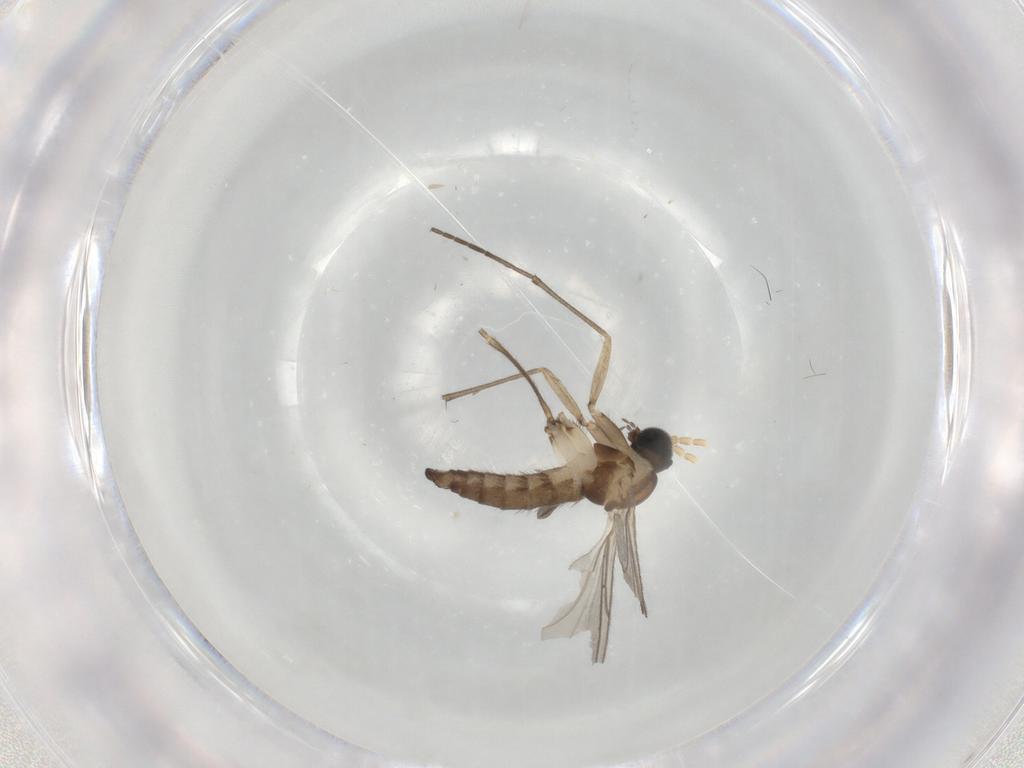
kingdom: Animalia
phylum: Arthropoda
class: Insecta
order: Diptera
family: Sciaridae
